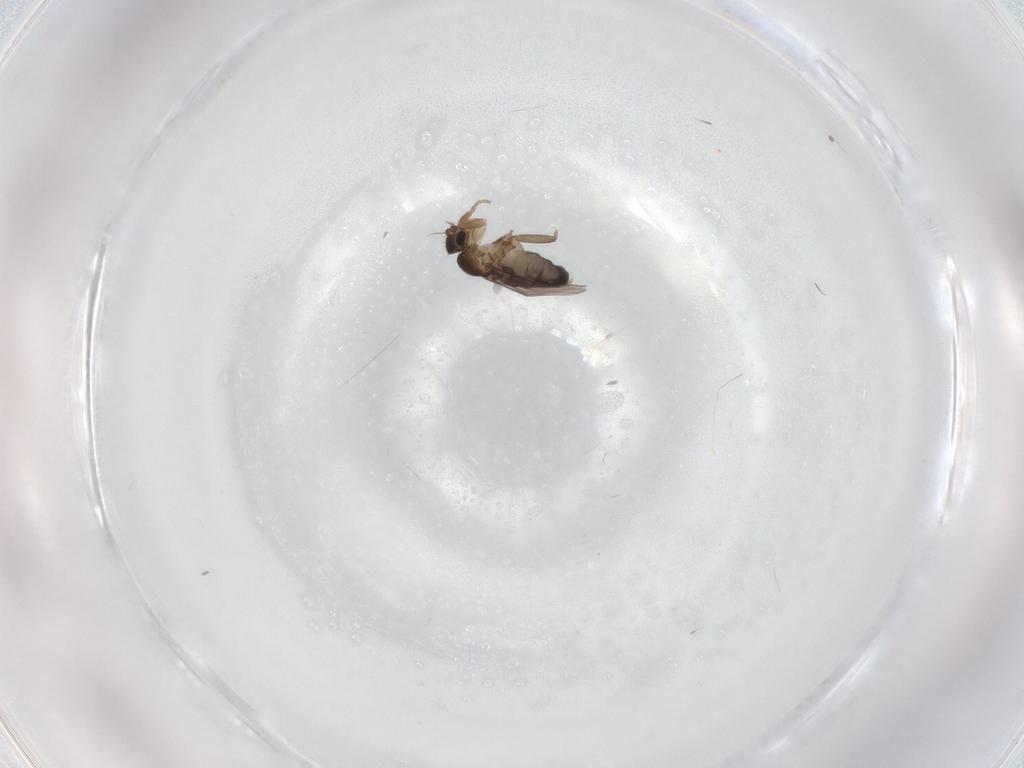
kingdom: Animalia
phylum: Arthropoda
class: Insecta
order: Diptera
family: Phoridae
